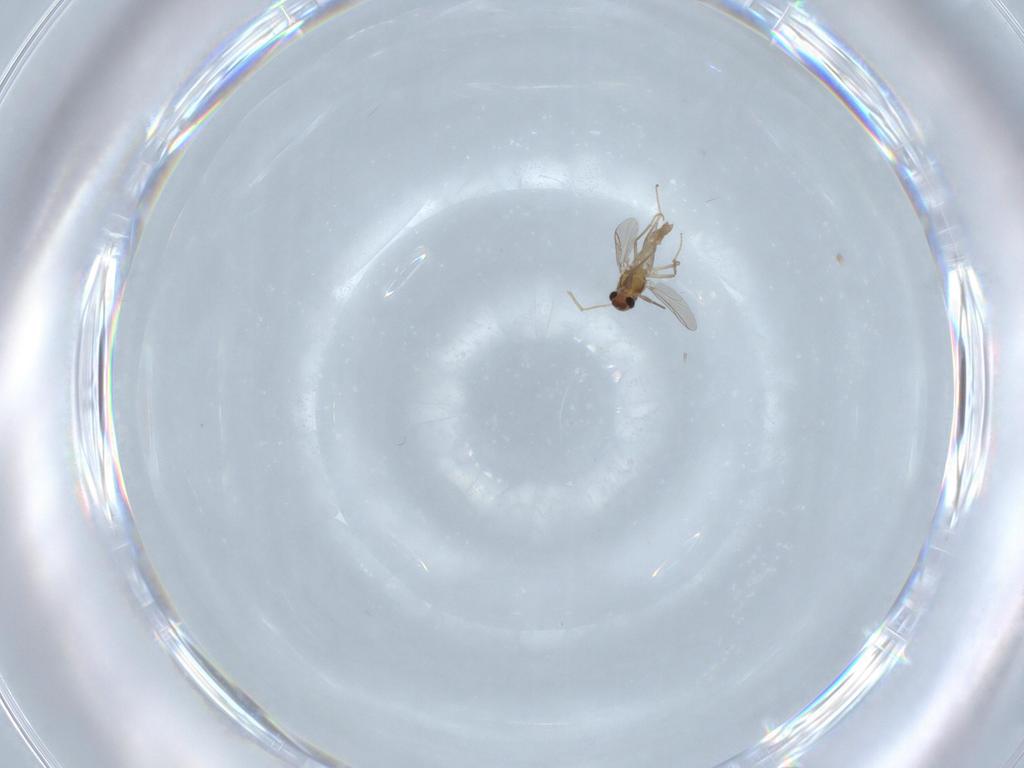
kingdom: Animalia
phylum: Arthropoda
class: Insecta
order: Diptera
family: Chironomidae
